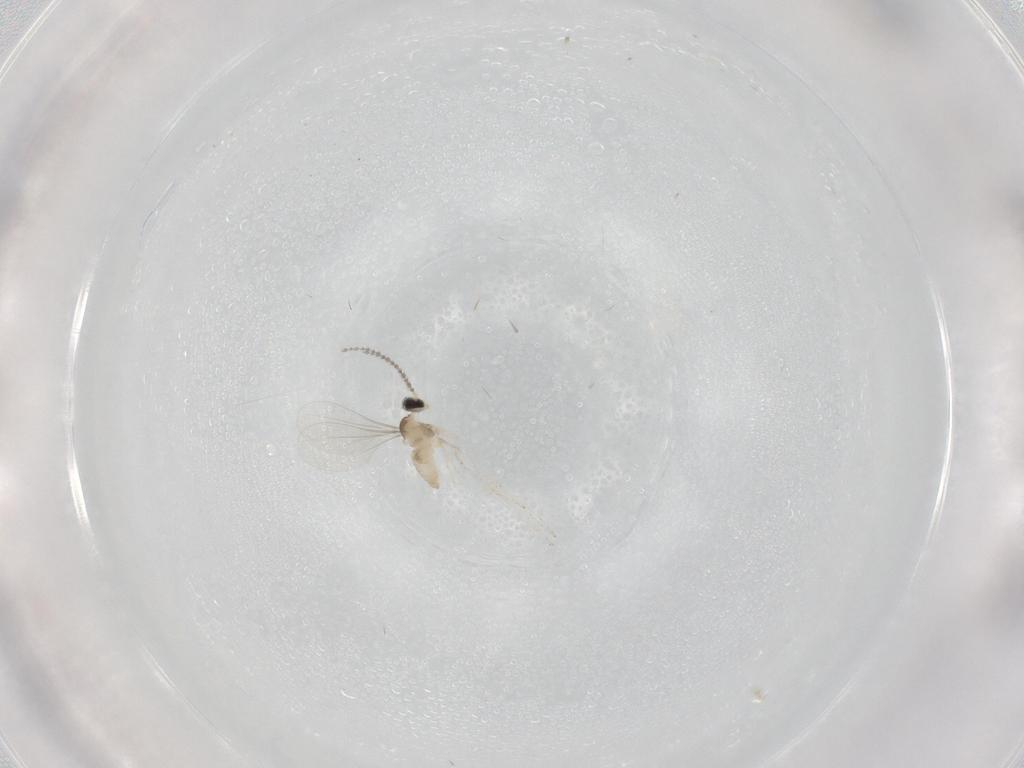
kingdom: Animalia
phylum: Arthropoda
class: Insecta
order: Diptera
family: Cecidomyiidae
